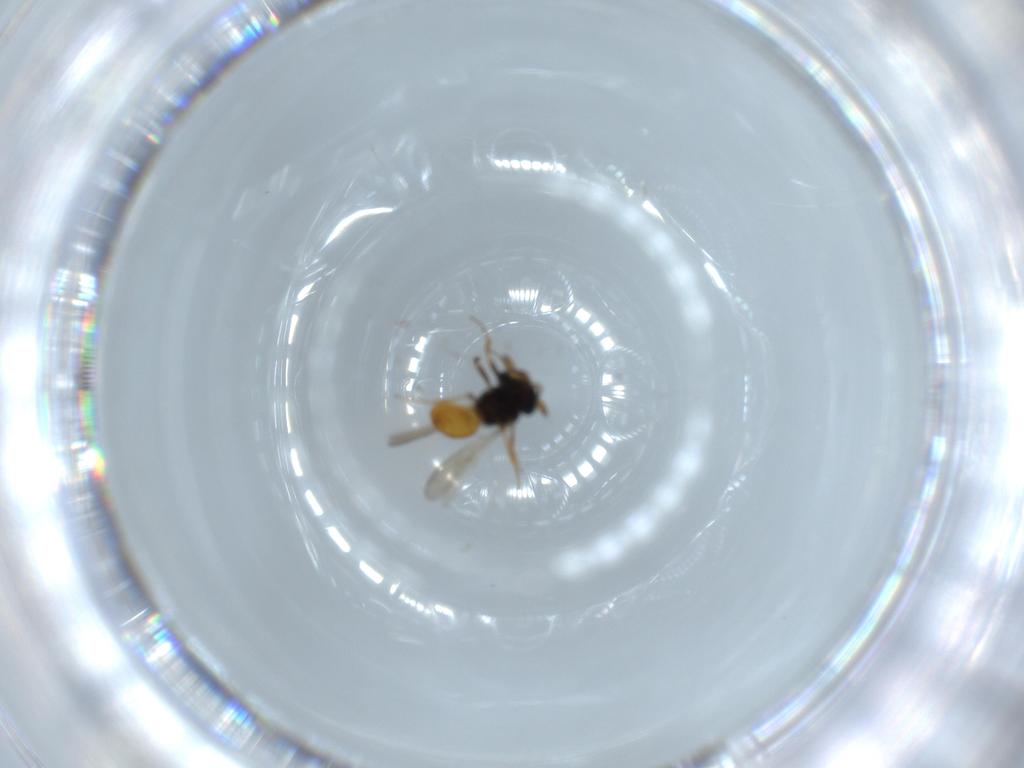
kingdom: Animalia
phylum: Arthropoda
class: Insecta
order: Hymenoptera
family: Scelionidae
